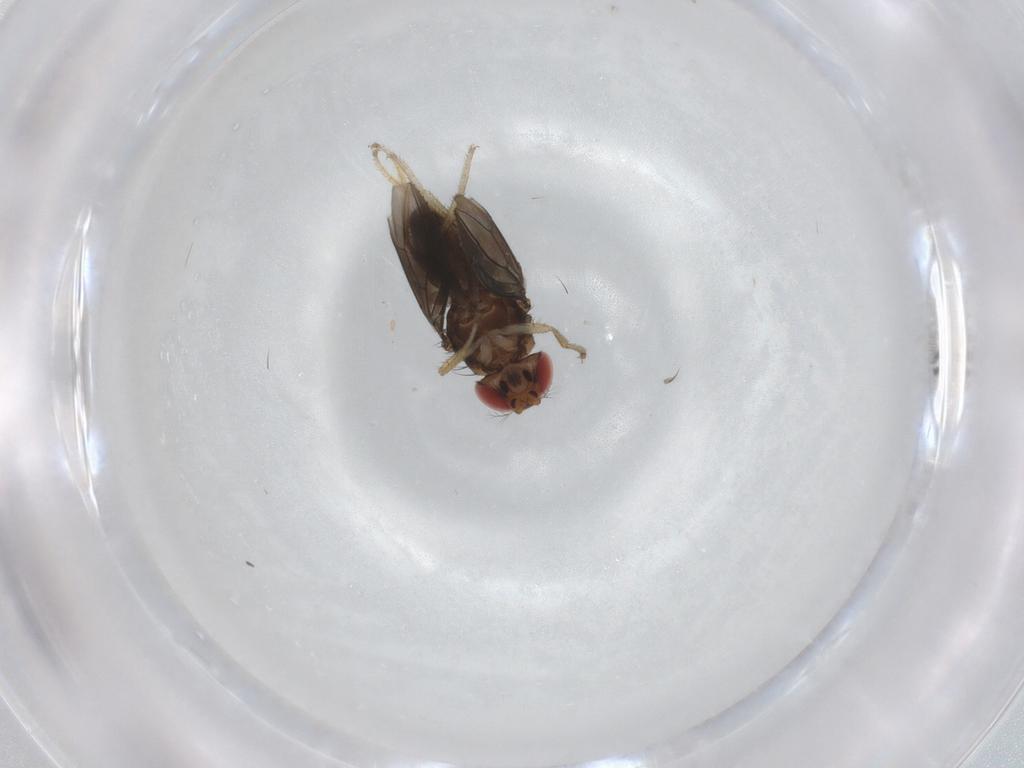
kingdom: Animalia
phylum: Arthropoda
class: Insecta
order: Diptera
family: Drosophilidae
